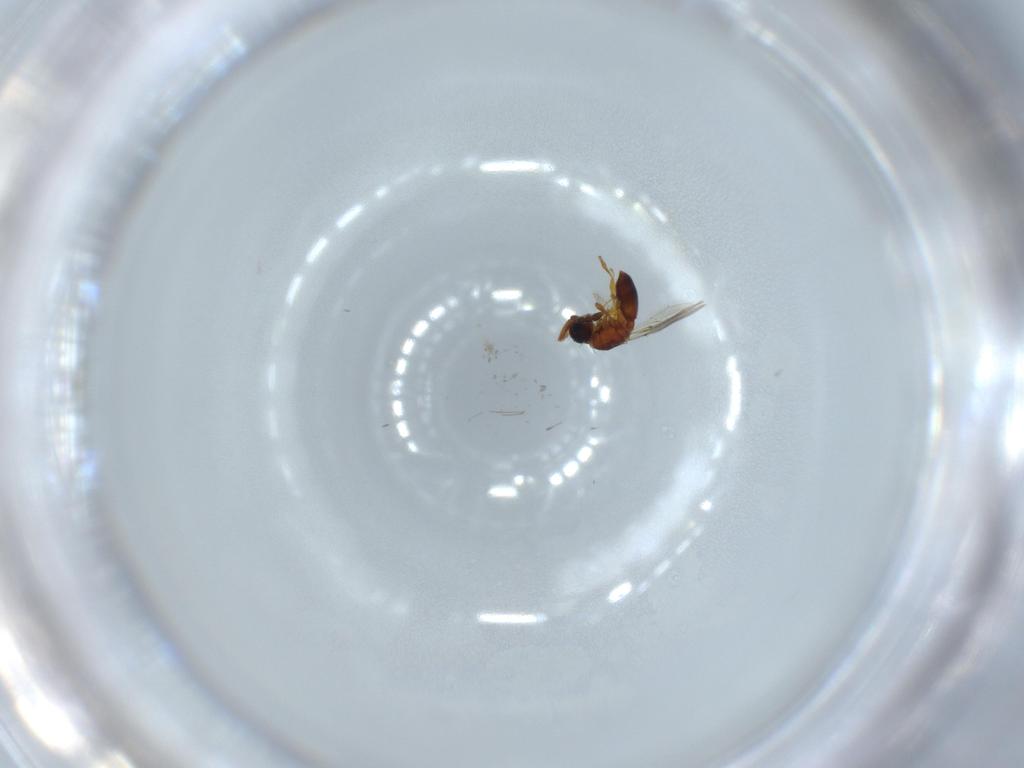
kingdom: Animalia
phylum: Arthropoda
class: Insecta
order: Hymenoptera
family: Diapriidae
